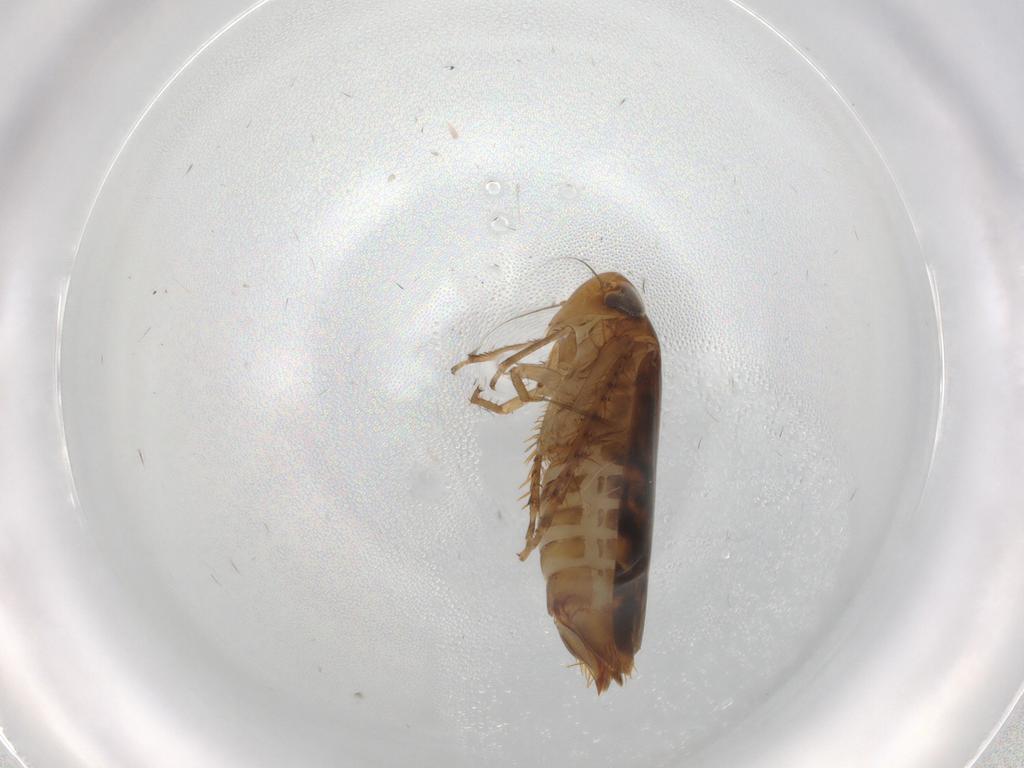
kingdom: Animalia
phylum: Arthropoda
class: Insecta
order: Hemiptera
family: Cicadellidae
